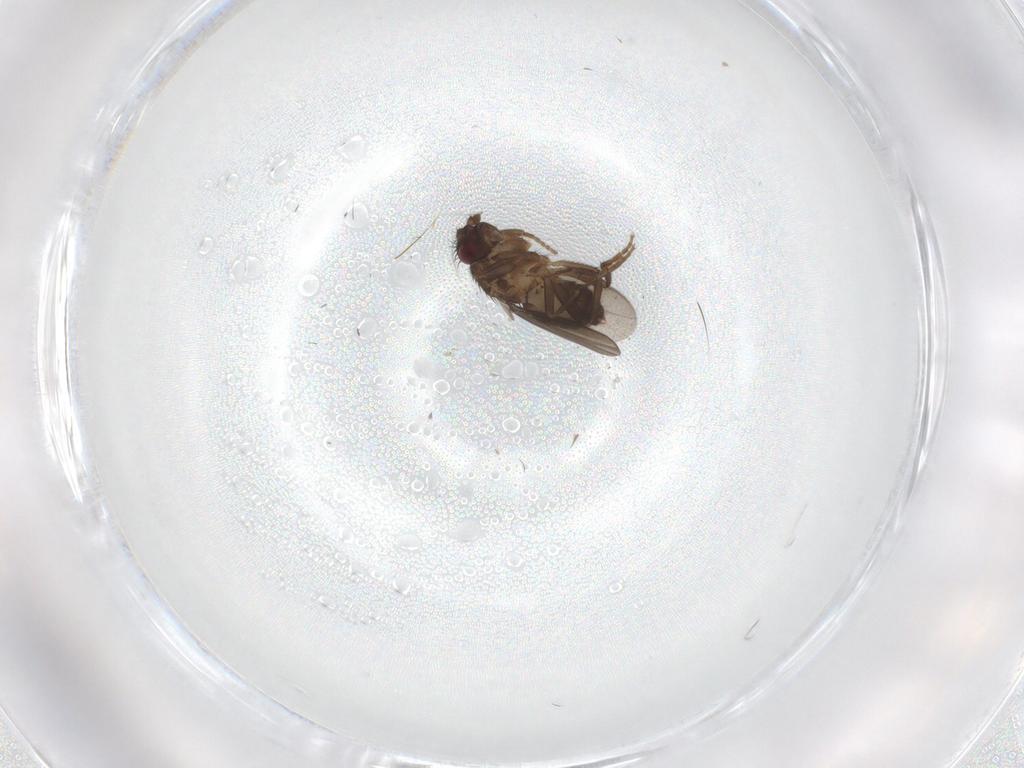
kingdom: Animalia
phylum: Arthropoda
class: Insecta
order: Diptera
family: Cecidomyiidae
